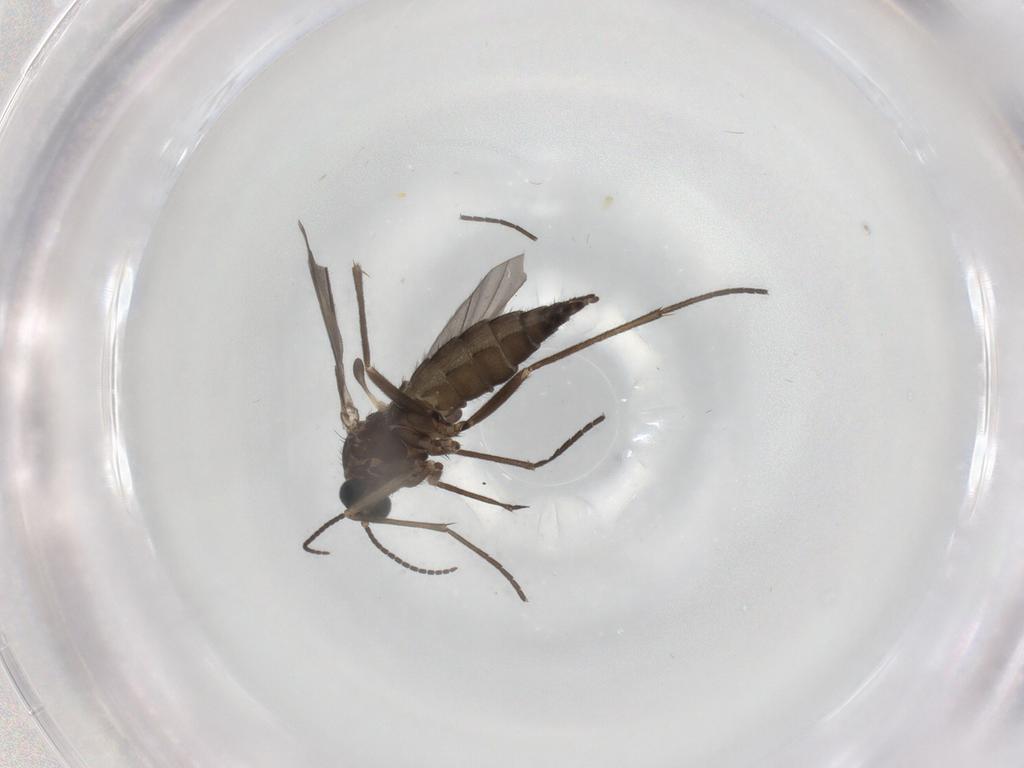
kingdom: Animalia
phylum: Arthropoda
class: Insecta
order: Diptera
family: Sciaridae
